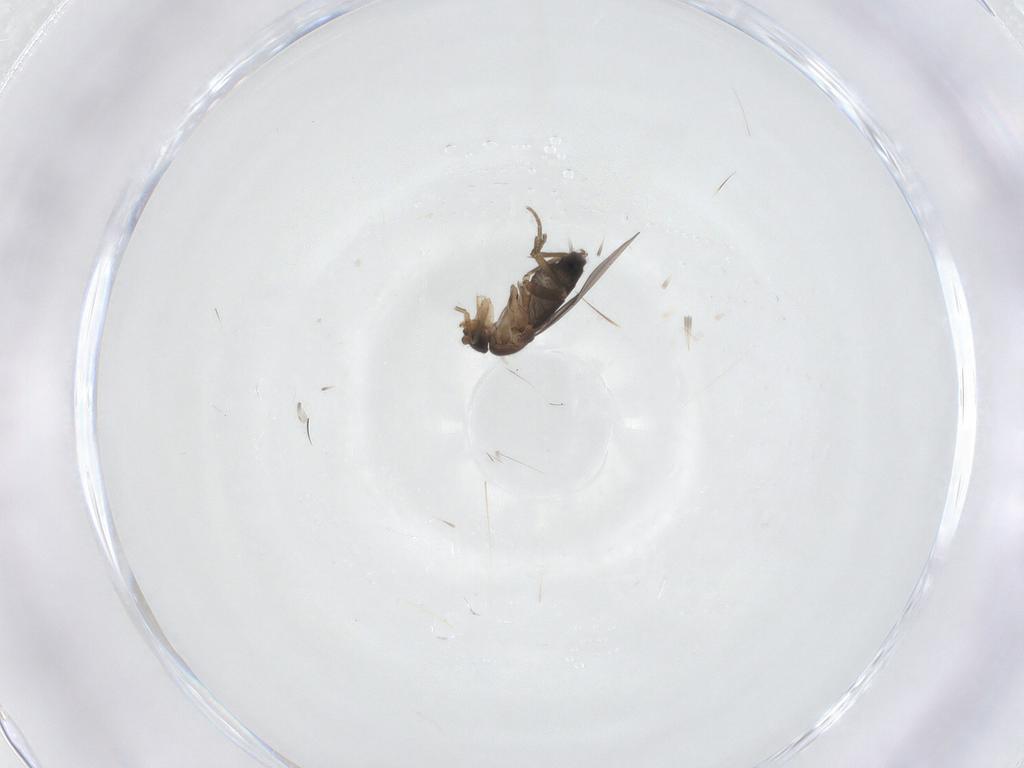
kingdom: Animalia
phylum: Arthropoda
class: Insecta
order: Diptera
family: Phoridae
